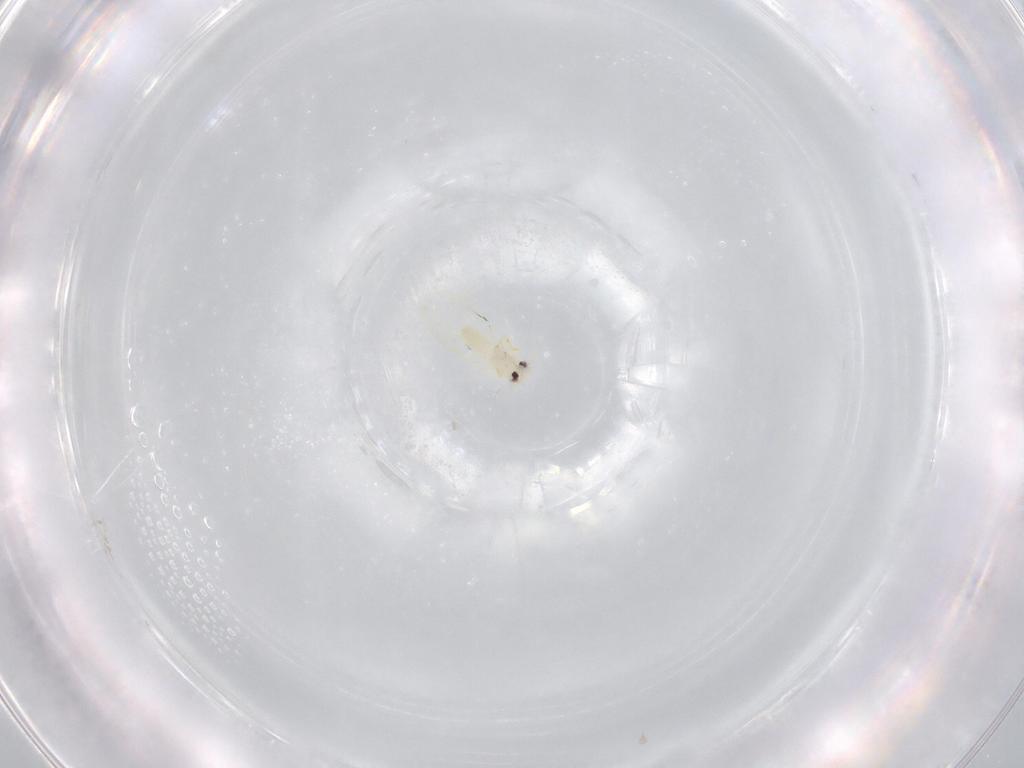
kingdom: Animalia
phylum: Arthropoda
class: Insecta
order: Hemiptera
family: Aleyrodidae
